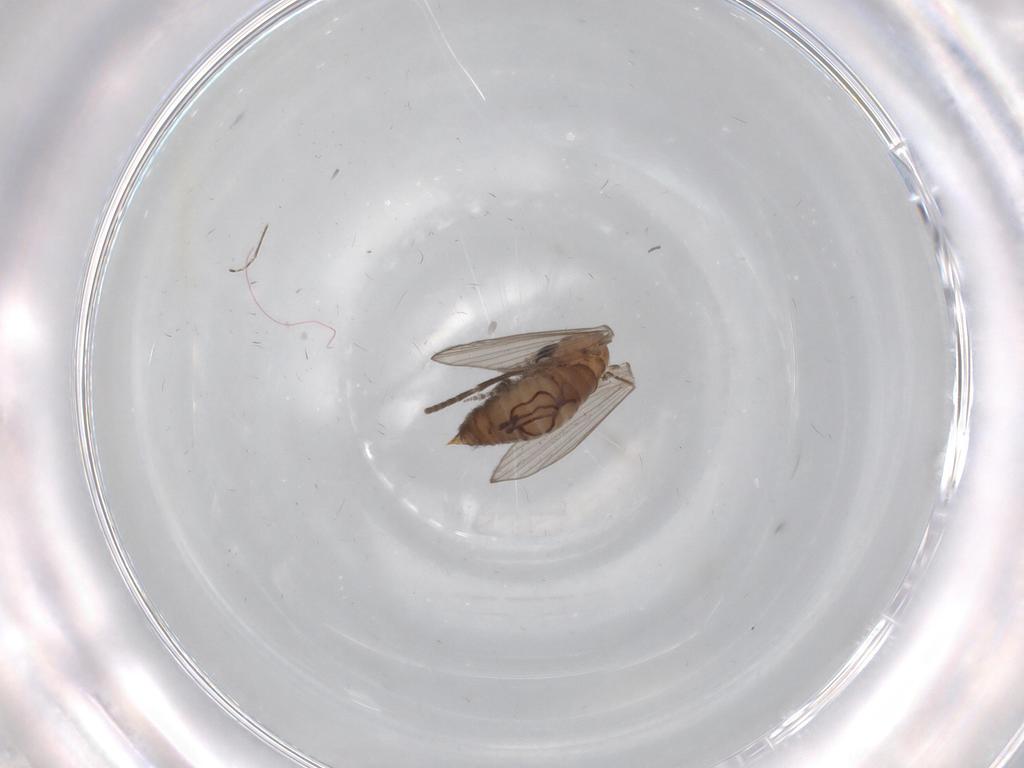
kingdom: Animalia
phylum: Arthropoda
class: Insecta
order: Diptera
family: Psychodidae
